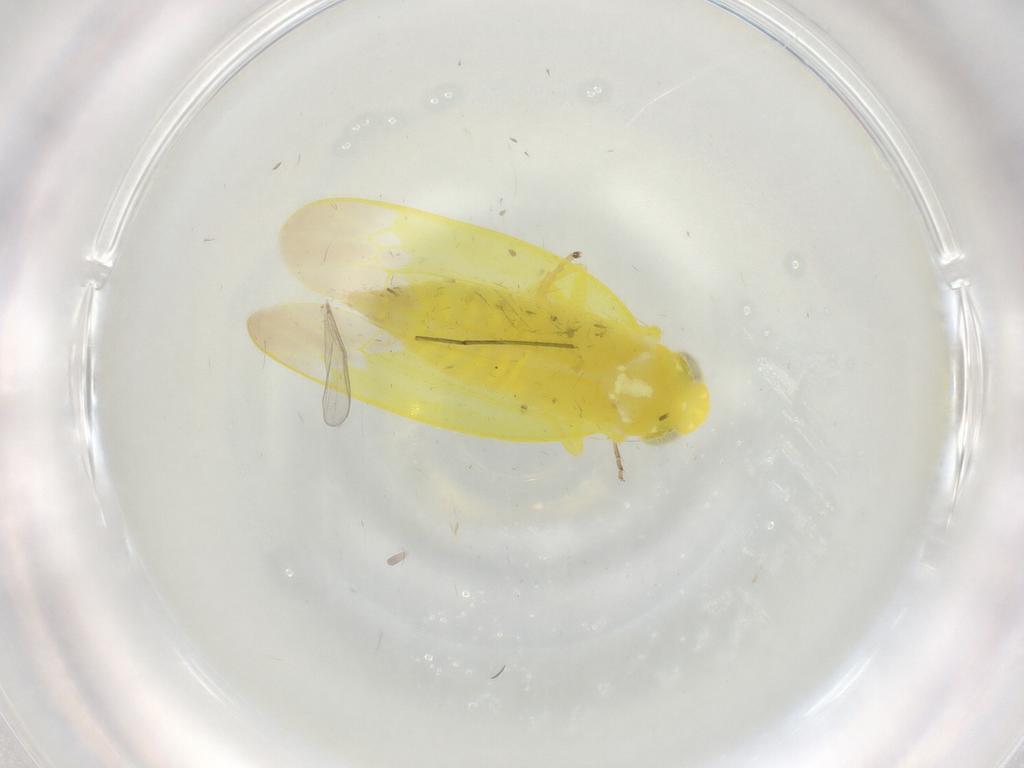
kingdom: Animalia
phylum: Arthropoda
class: Insecta
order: Hemiptera
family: Cicadellidae
